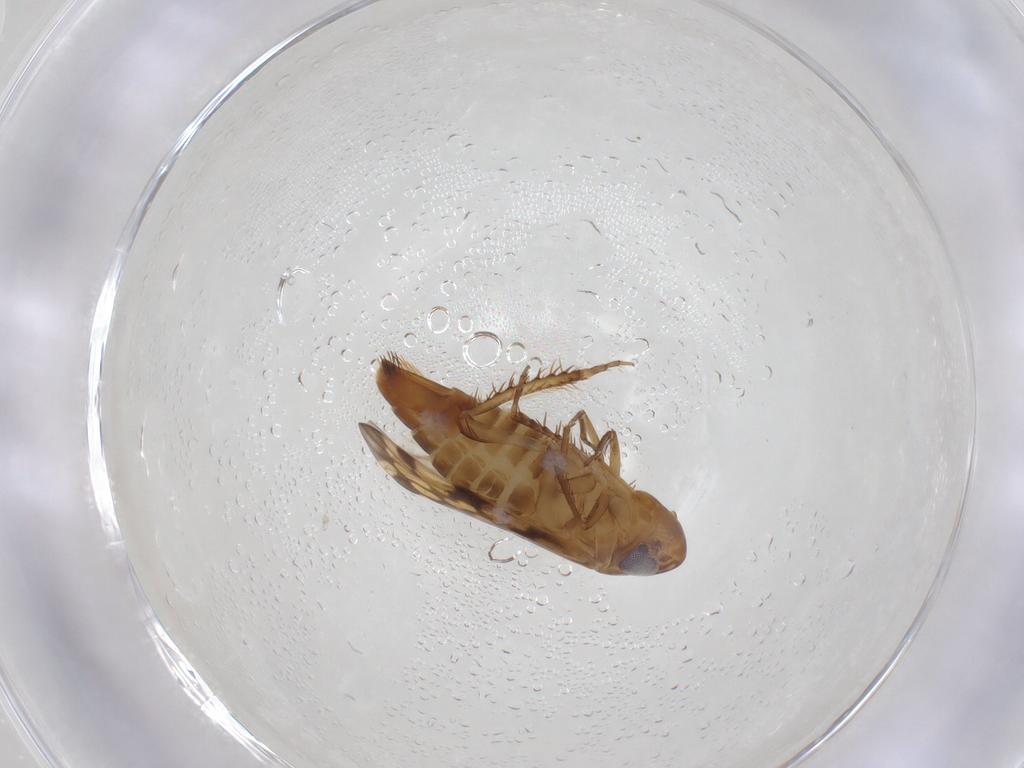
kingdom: Animalia
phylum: Arthropoda
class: Insecta
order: Hemiptera
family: Cicadellidae
